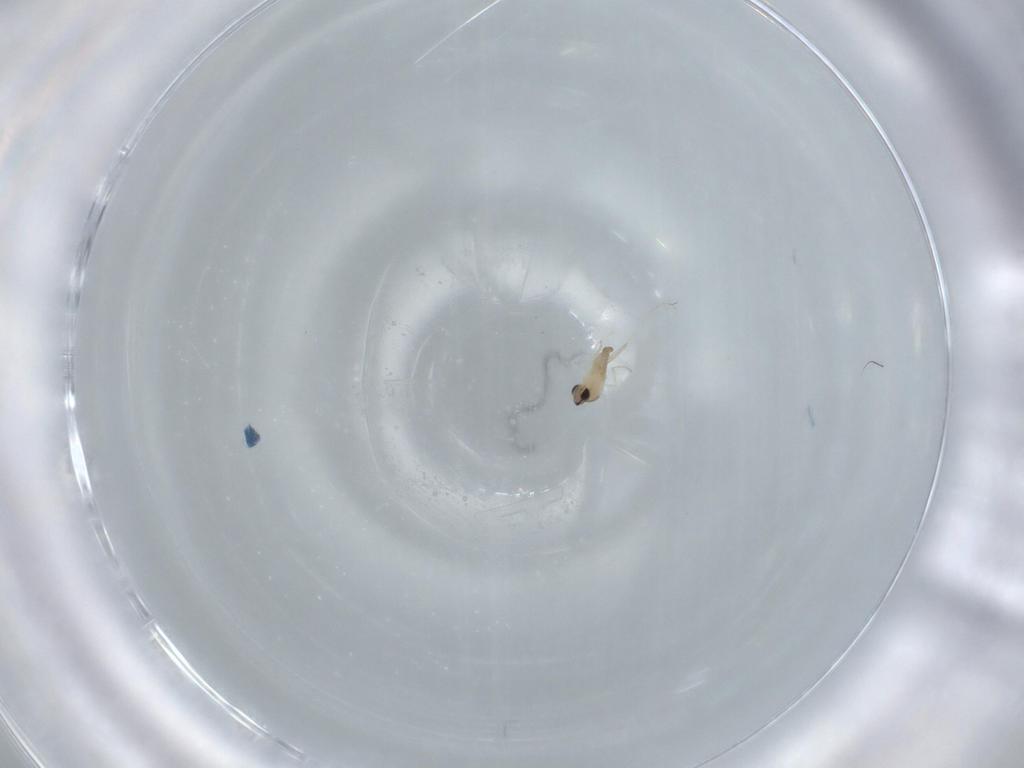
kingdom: Animalia
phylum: Arthropoda
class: Insecta
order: Diptera
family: Cecidomyiidae
